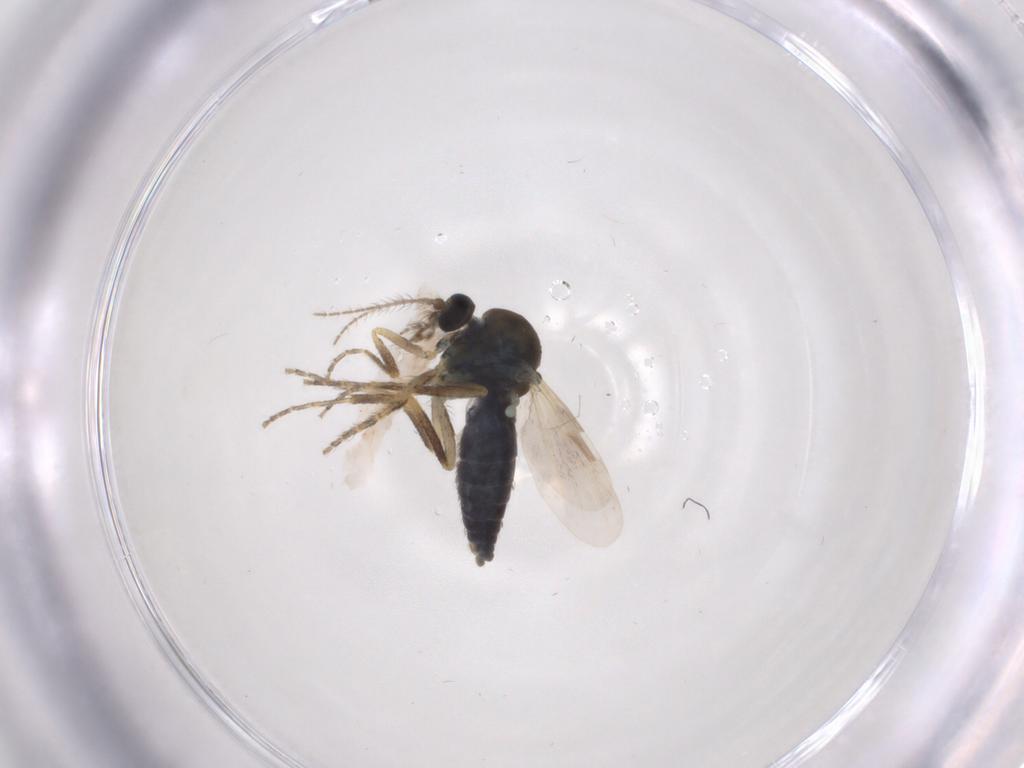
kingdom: Animalia
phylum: Arthropoda
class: Insecta
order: Diptera
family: Ceratopogonidae
